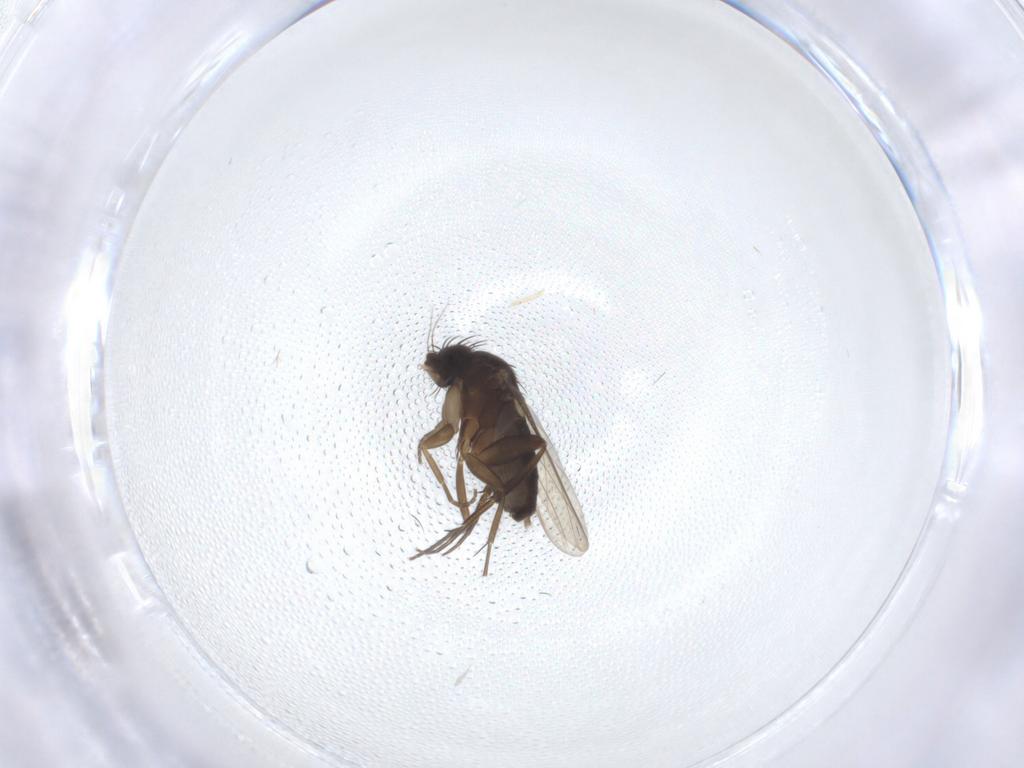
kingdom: Animalia
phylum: Arthropoda
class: Insecta
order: Diptera
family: Phoridae
